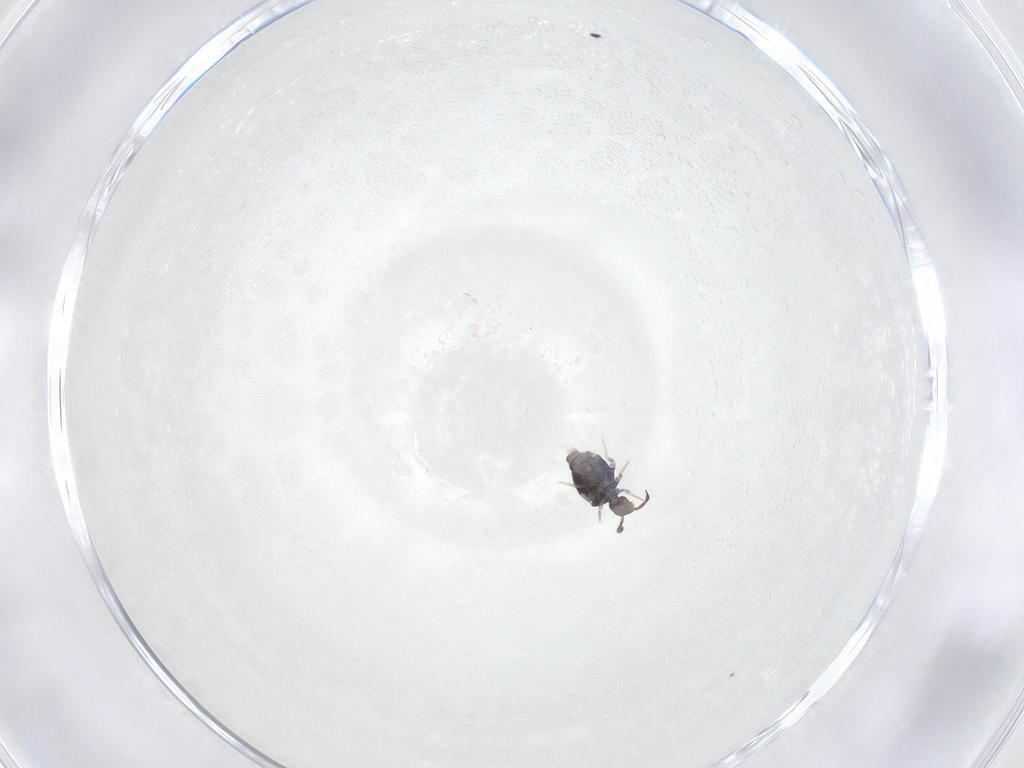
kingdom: Animalia
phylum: Arthropoda
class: Collembola
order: Symphypleona
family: Katiannidae
